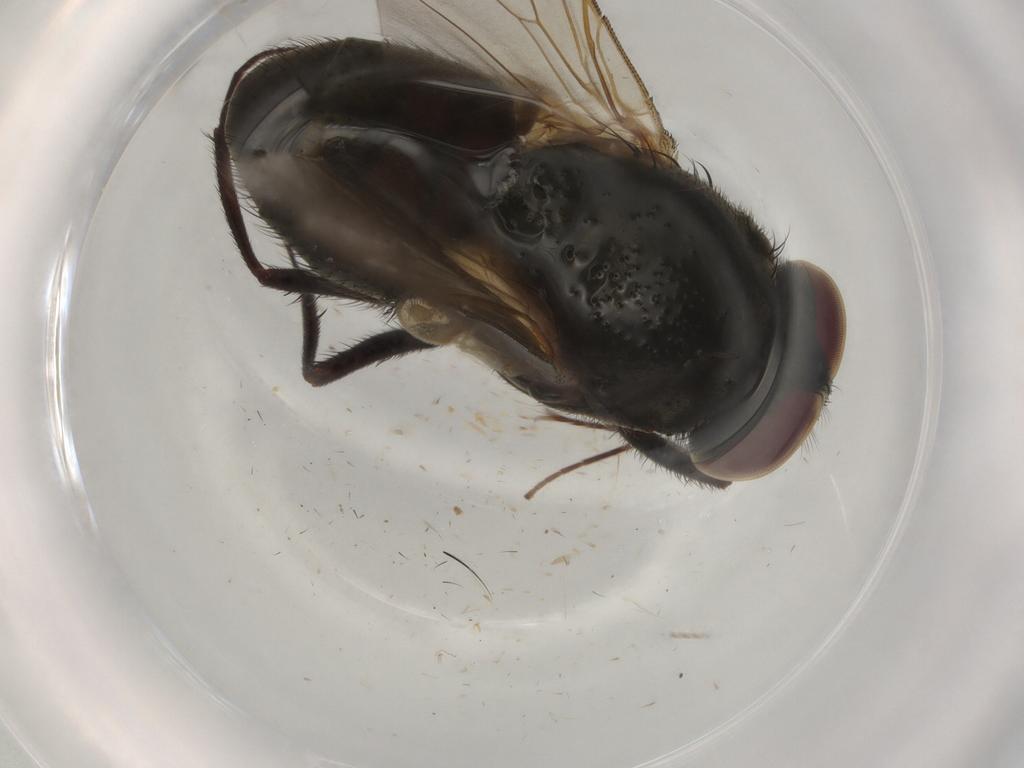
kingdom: Animalia
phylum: Arthropoda
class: Insecta
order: Diptera
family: Muscidae
